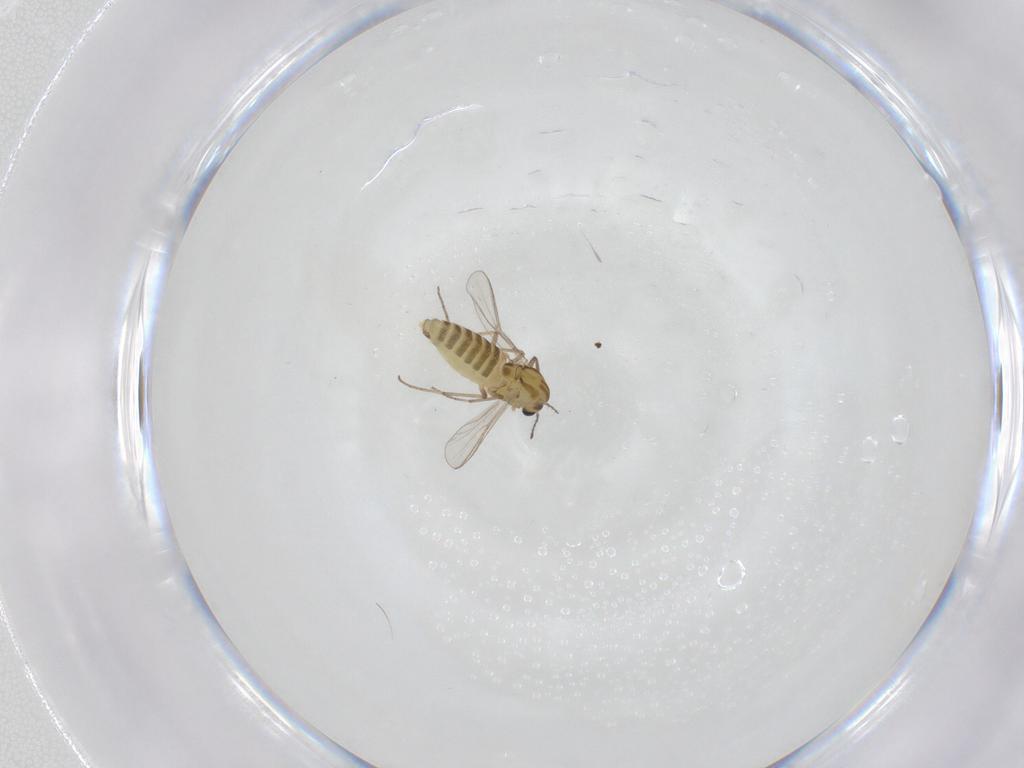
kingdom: Animalia
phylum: Arthropoda
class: Insecta
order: Diptera
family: Chironomidae
